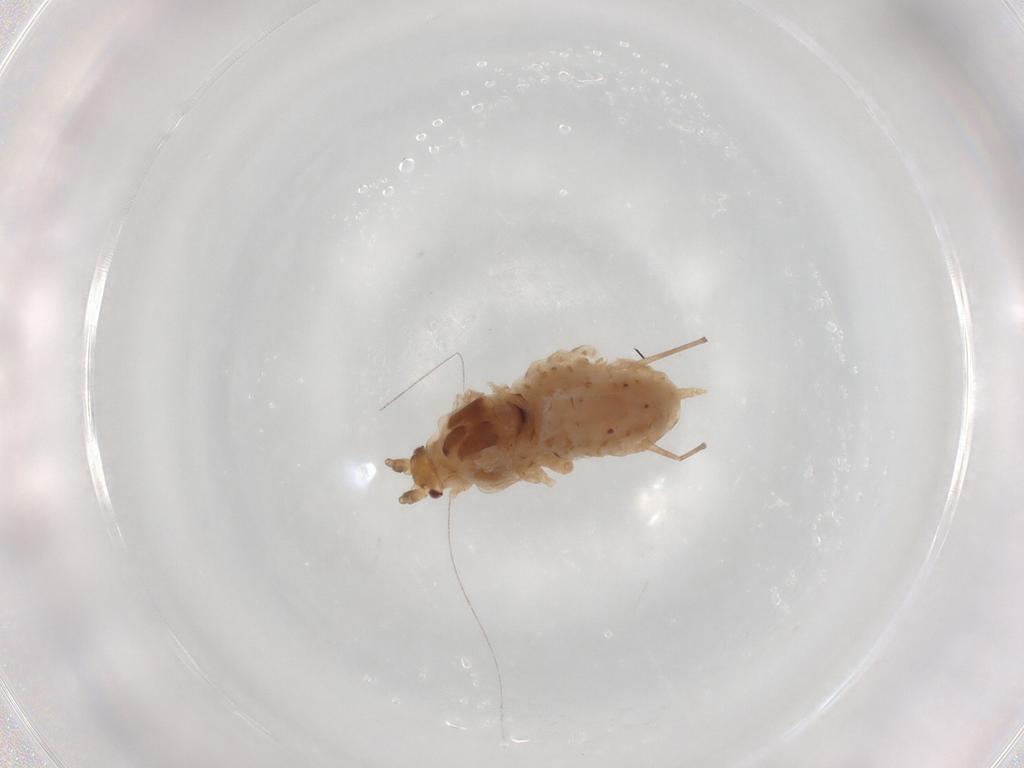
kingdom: Animalia
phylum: Arthropoda
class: Insecta
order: Hemiptera
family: Aphididae
